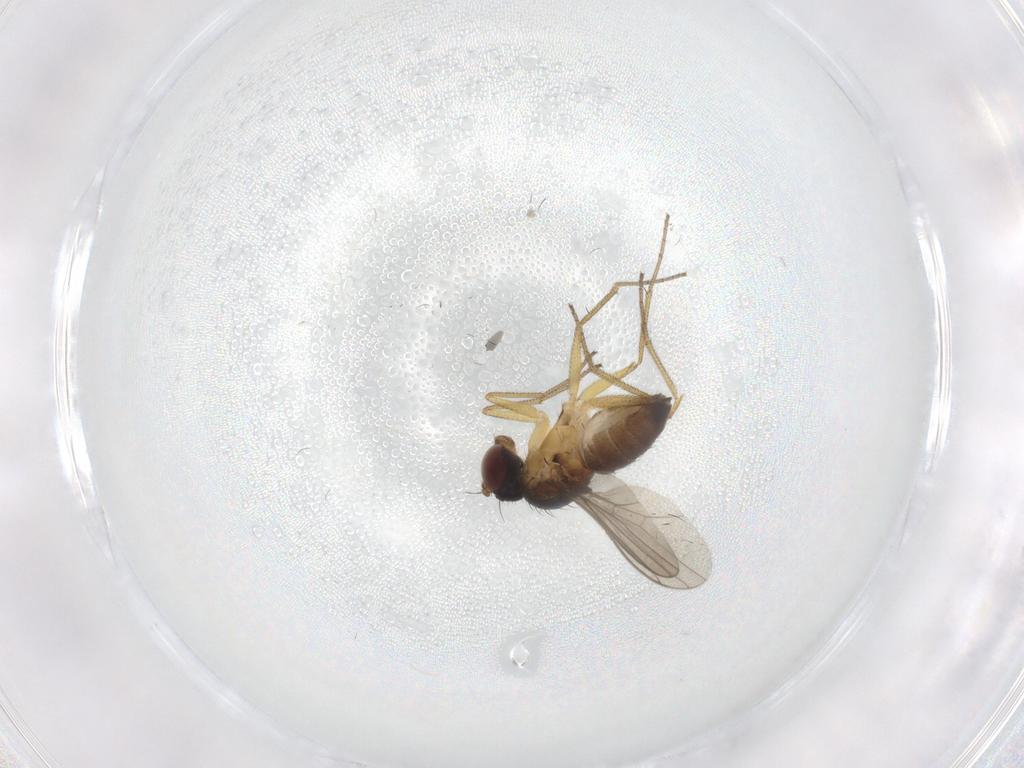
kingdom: Animalia
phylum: Arthropoda
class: Insecta
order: Diptera
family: Dolichopodidae
